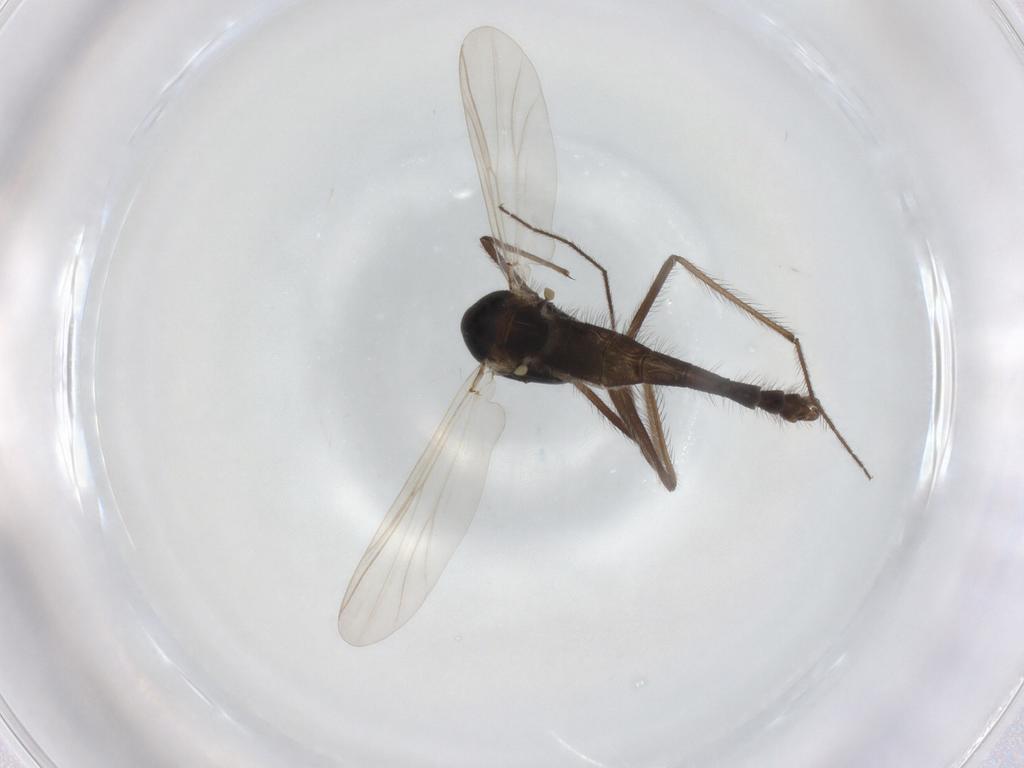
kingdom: Animalia
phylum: Arthropoda
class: Insecta
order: Diptera
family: Chironomidae
